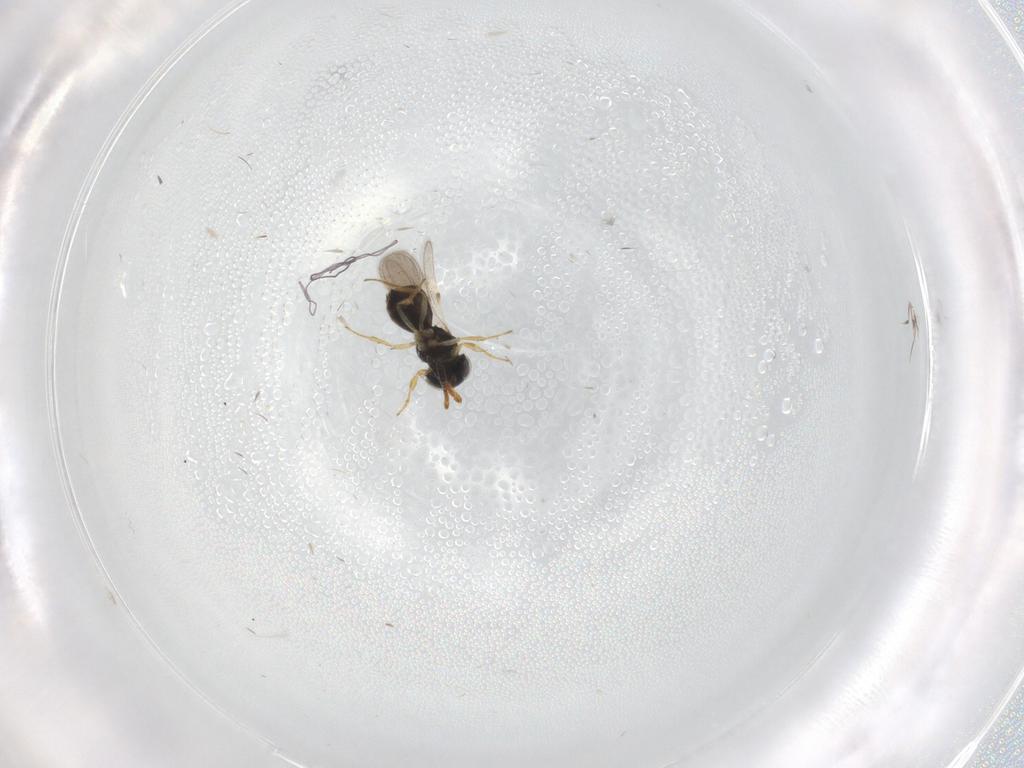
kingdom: Animalia
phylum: Arthropoda
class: Insecta
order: Hymenoptera
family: Scelionidae
